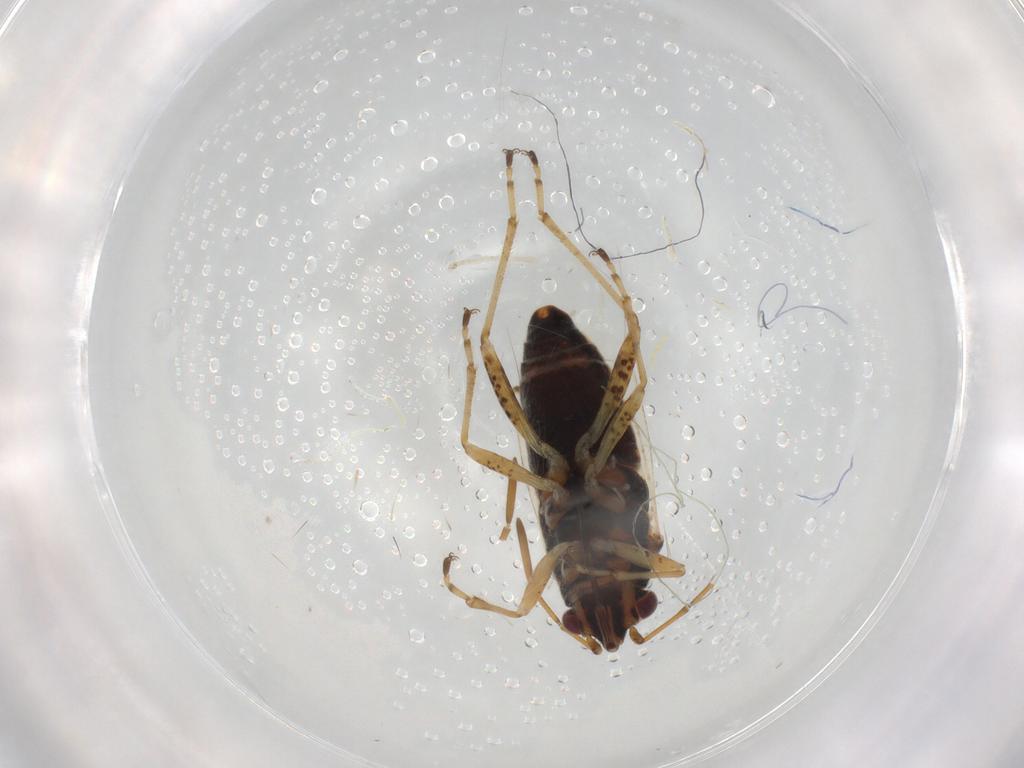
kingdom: Animalia
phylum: Arthropoda
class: Insecta
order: Hemiptera
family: Lygaeidae
